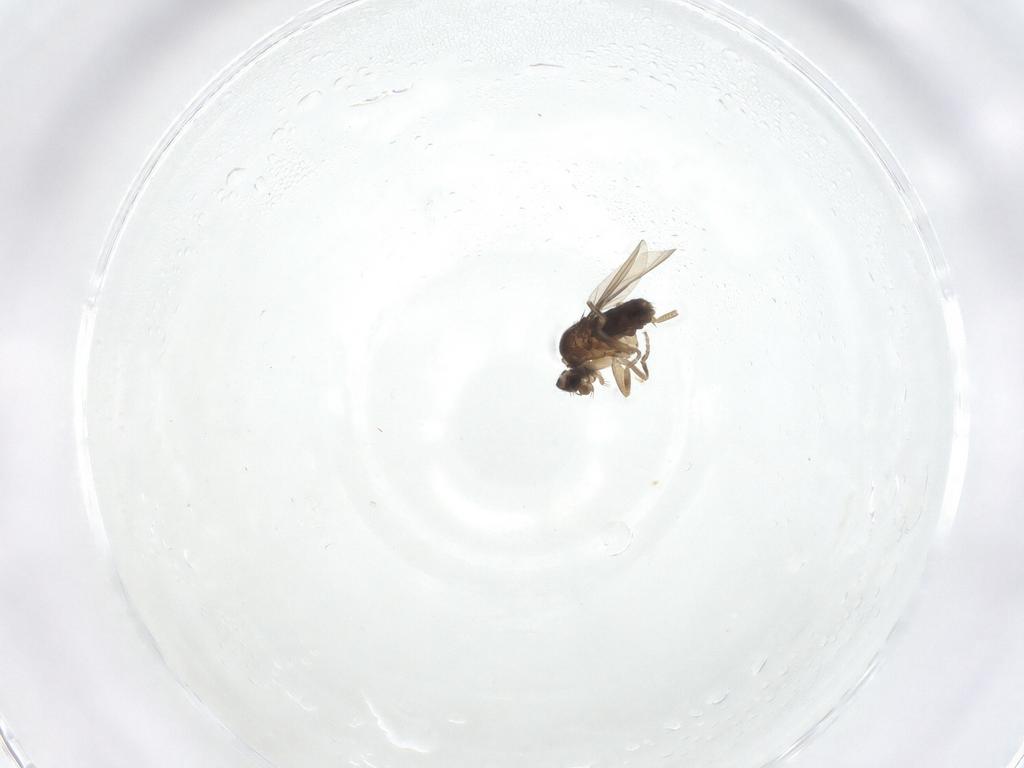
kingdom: Animalia
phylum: Arthropoda
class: Insecta
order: Diptera
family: Phoridae
